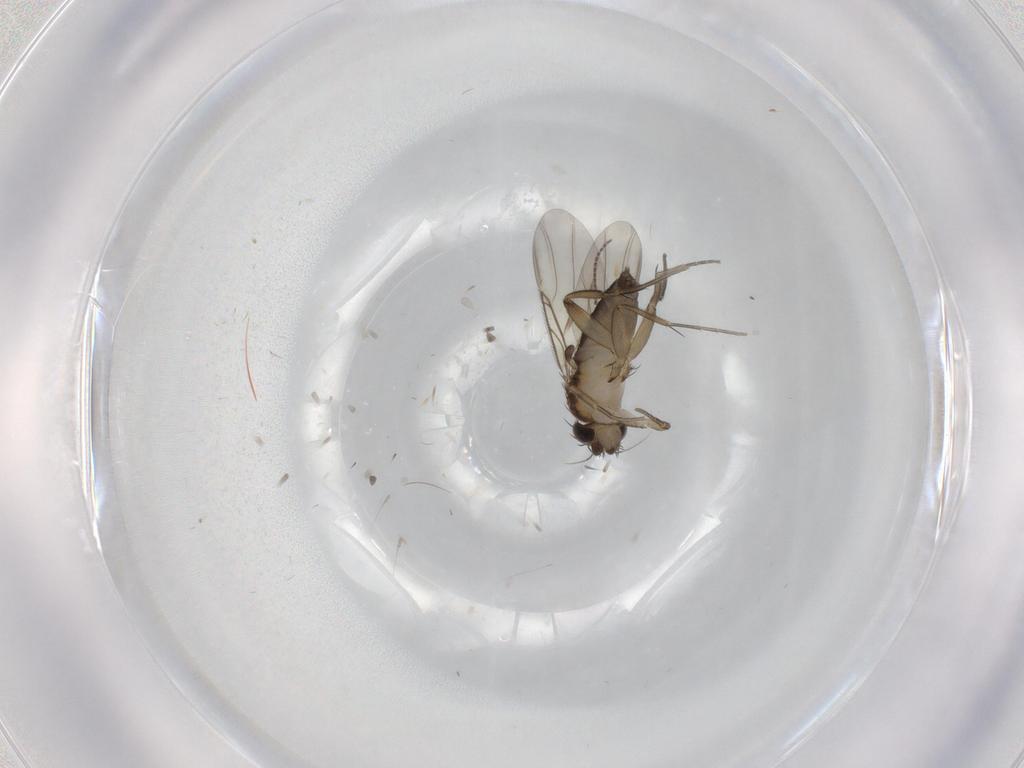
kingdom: Animalia
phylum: Arthropoda
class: Insecta
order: Diptera
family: Phoridae
